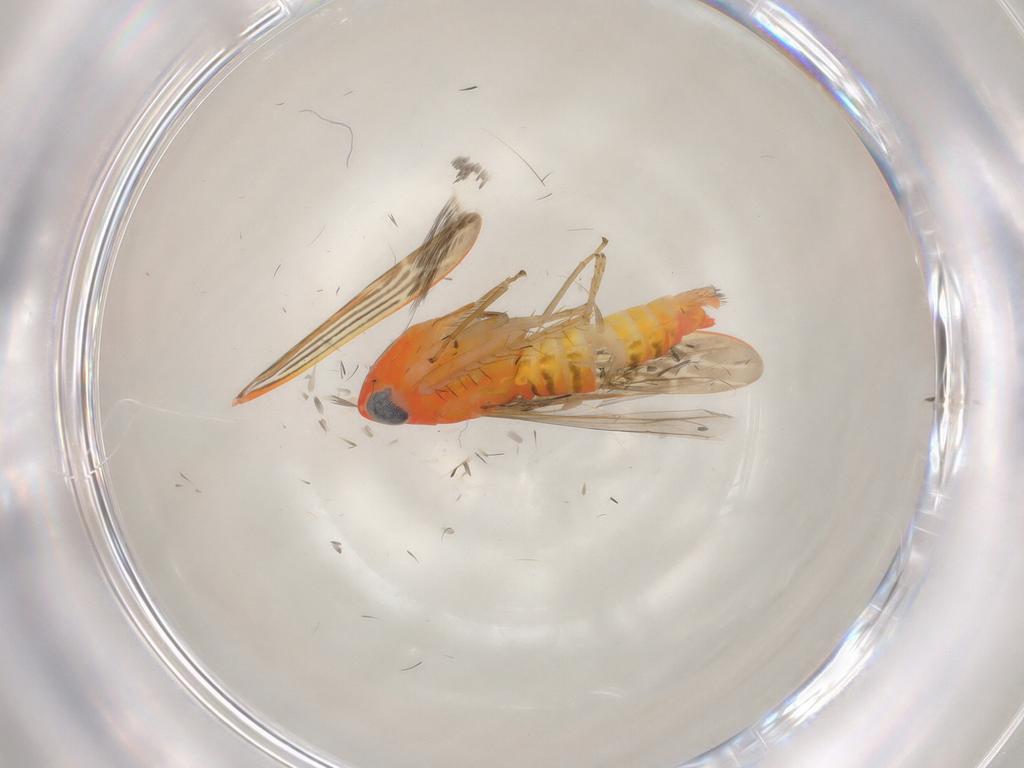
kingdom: Animalia
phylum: Arthropoda
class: Insecta
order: Hemiptera
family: Cicadellidae
